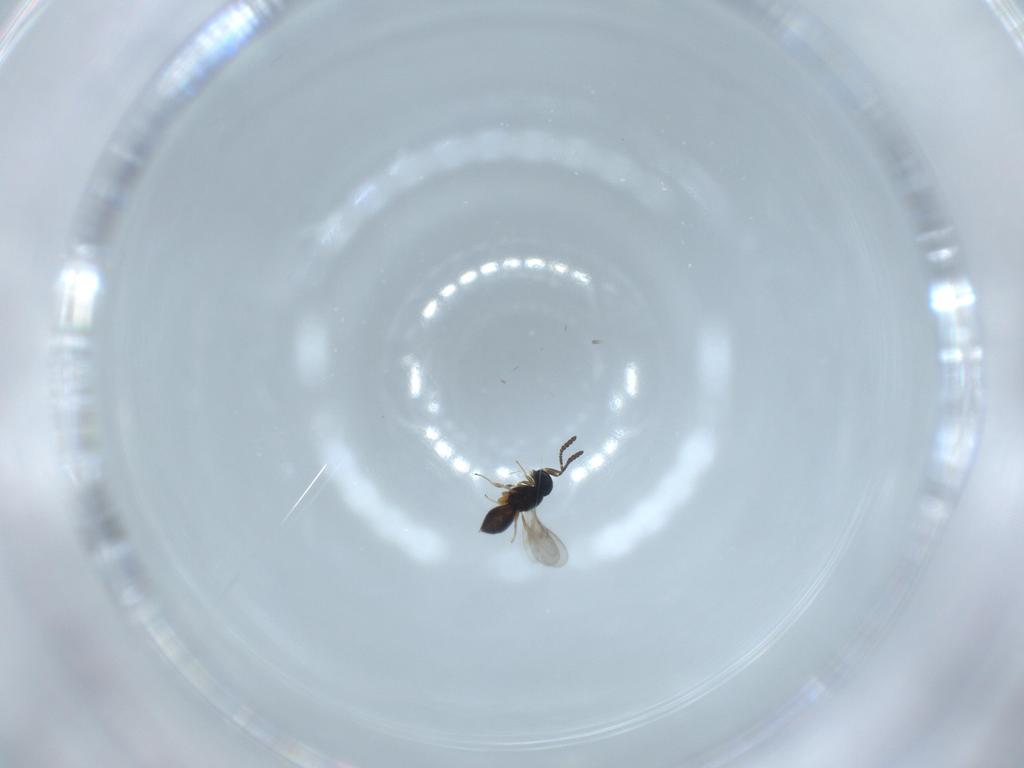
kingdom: Animalia
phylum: Arthropoda
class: Insecta
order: Hymenoptera
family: Scelionidae
